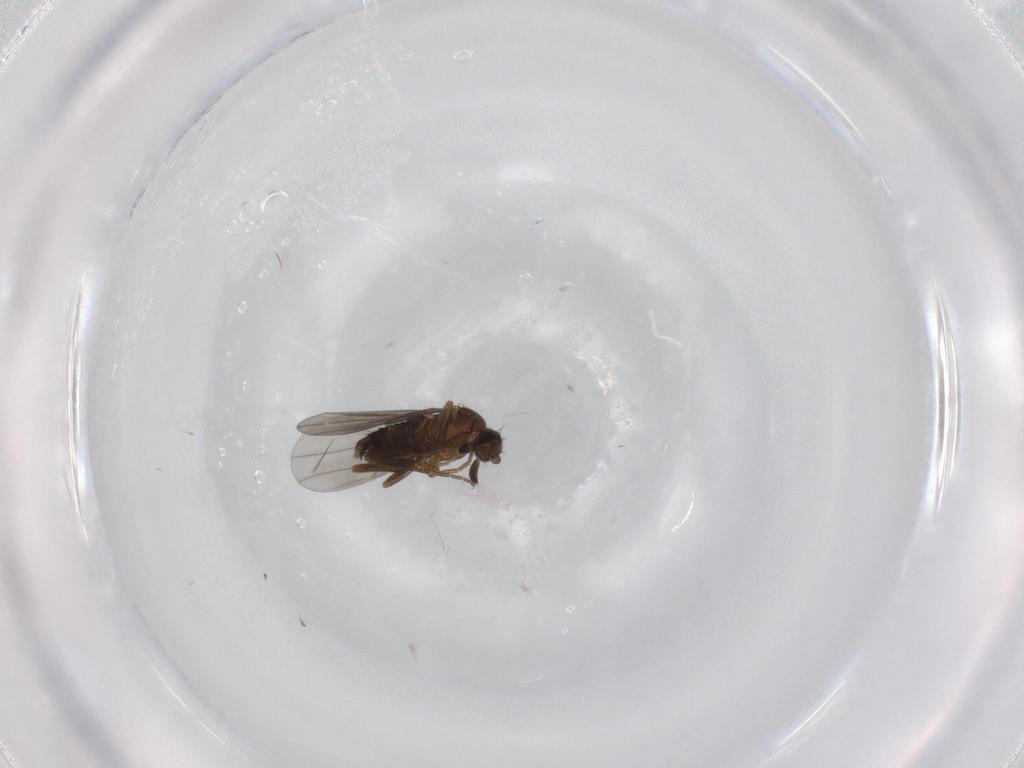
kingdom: Animalia
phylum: Arthropoda
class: Insecta
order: Diptera
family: Phoridae
